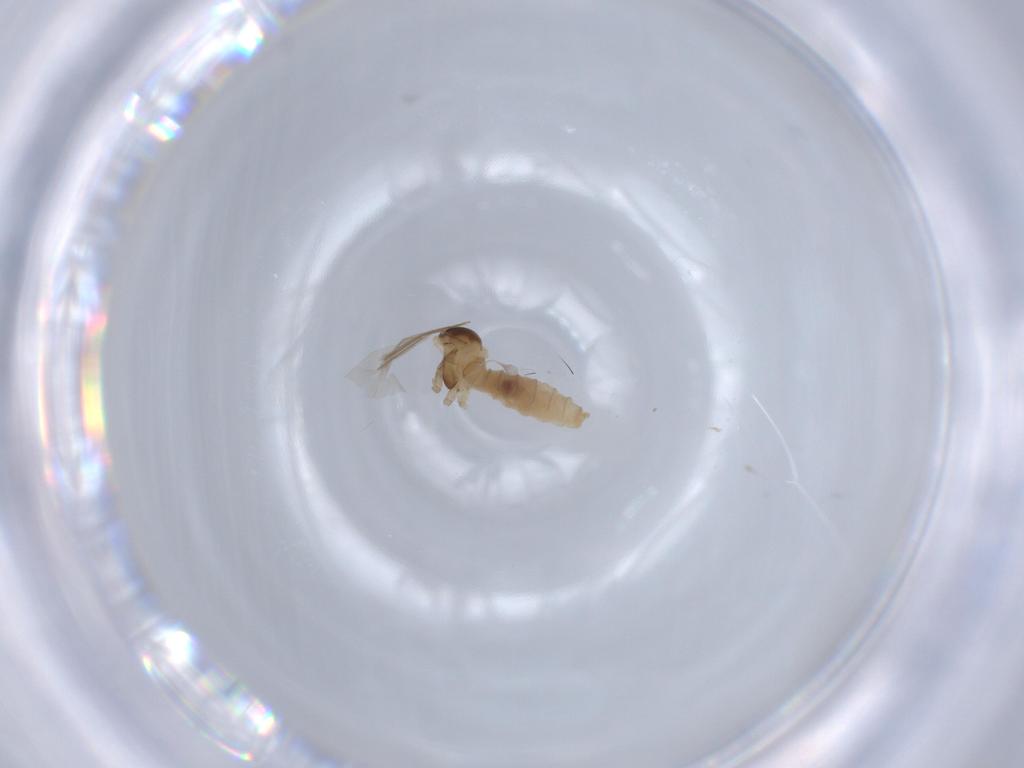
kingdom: Animalia
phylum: Arthropoda
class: Insecta
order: Diptera
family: Cecidomyiidae
